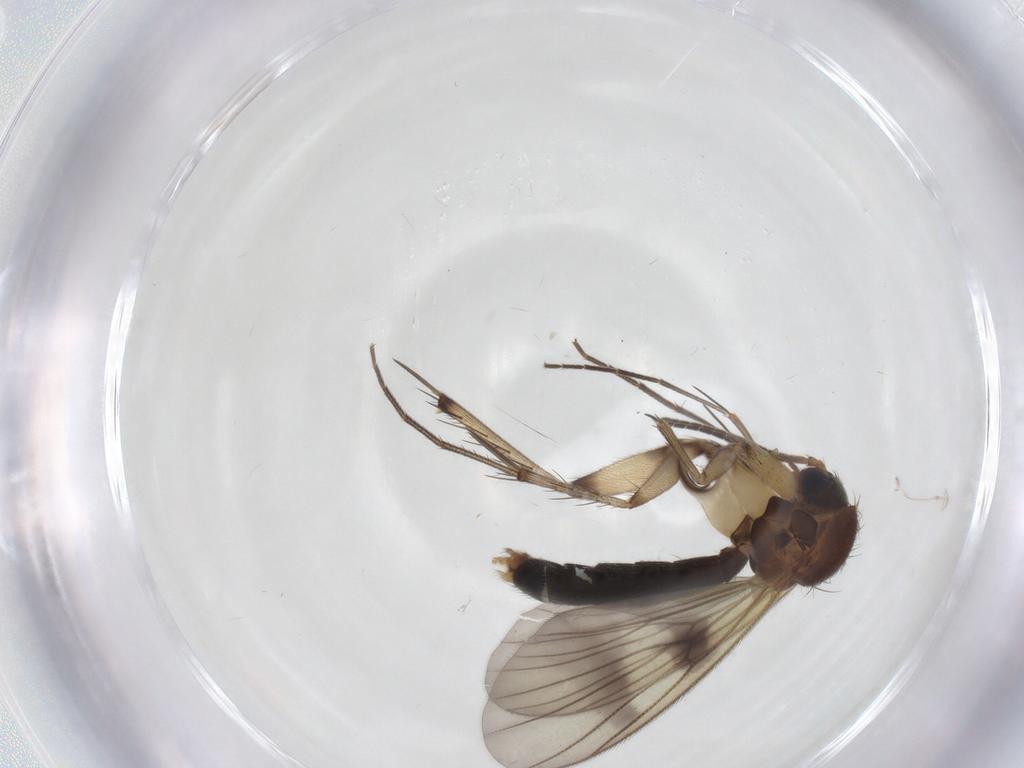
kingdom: Animalia
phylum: Arthropoda
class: Insecta
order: Diptera
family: Mycetophilidae
